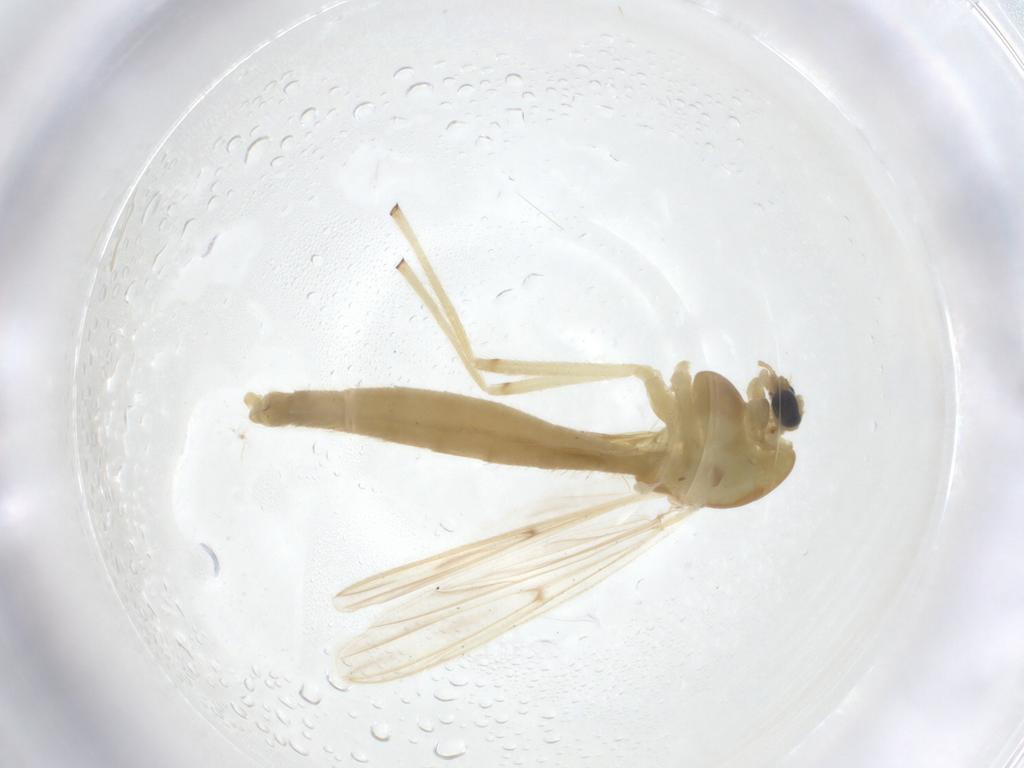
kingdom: Animalia
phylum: Arthropoda
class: Insecta
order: Diptera
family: Chironomidae
